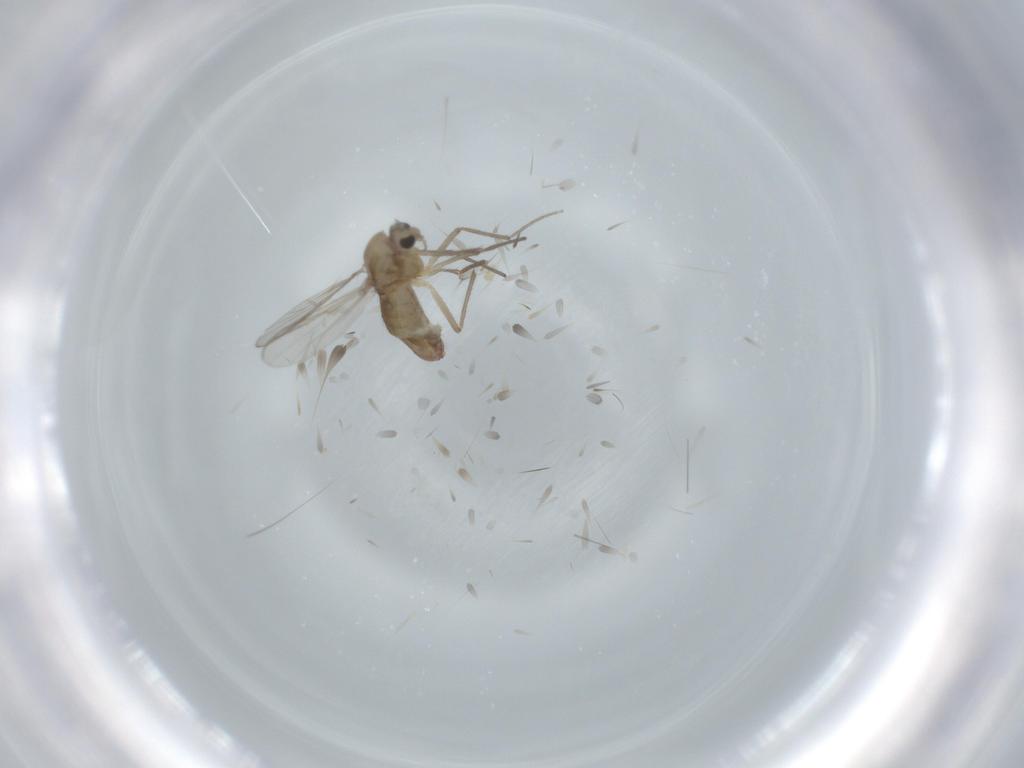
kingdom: Animalia
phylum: Arthropoda
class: Insecta
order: Diptera
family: Chironomidae
